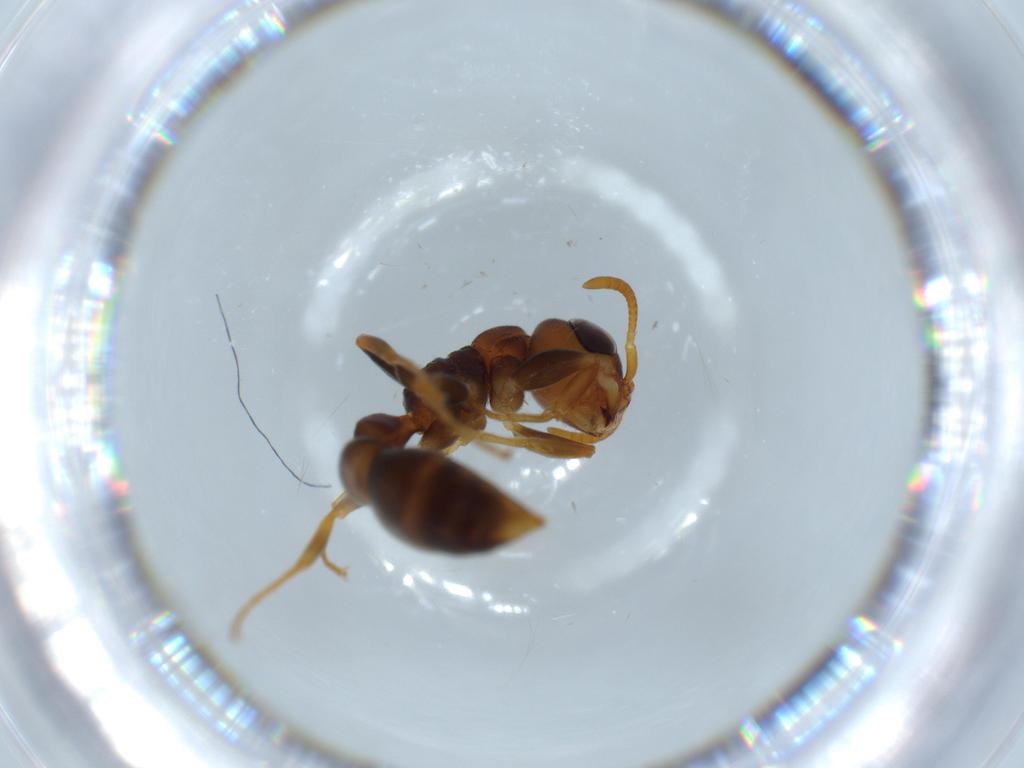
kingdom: Animalia
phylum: Arthropoda
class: Insecta
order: Hymenoptera
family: Formicidae
